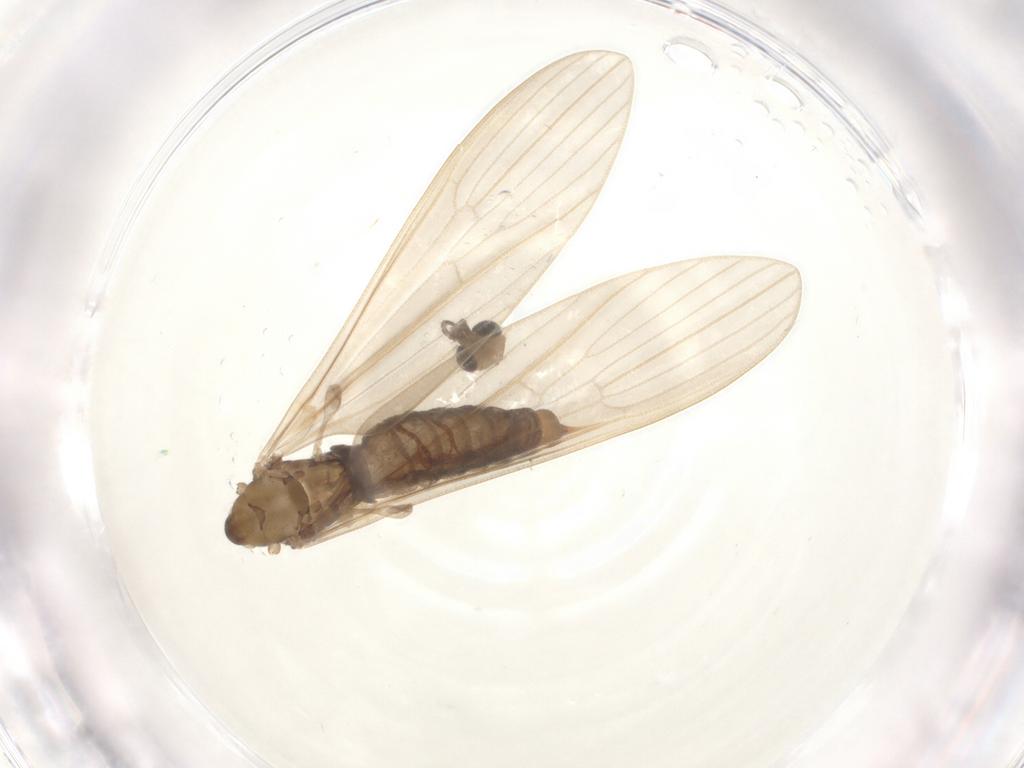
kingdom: Animalia
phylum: Arthropoda
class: Insecta
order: Diptera
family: Limoniidae
